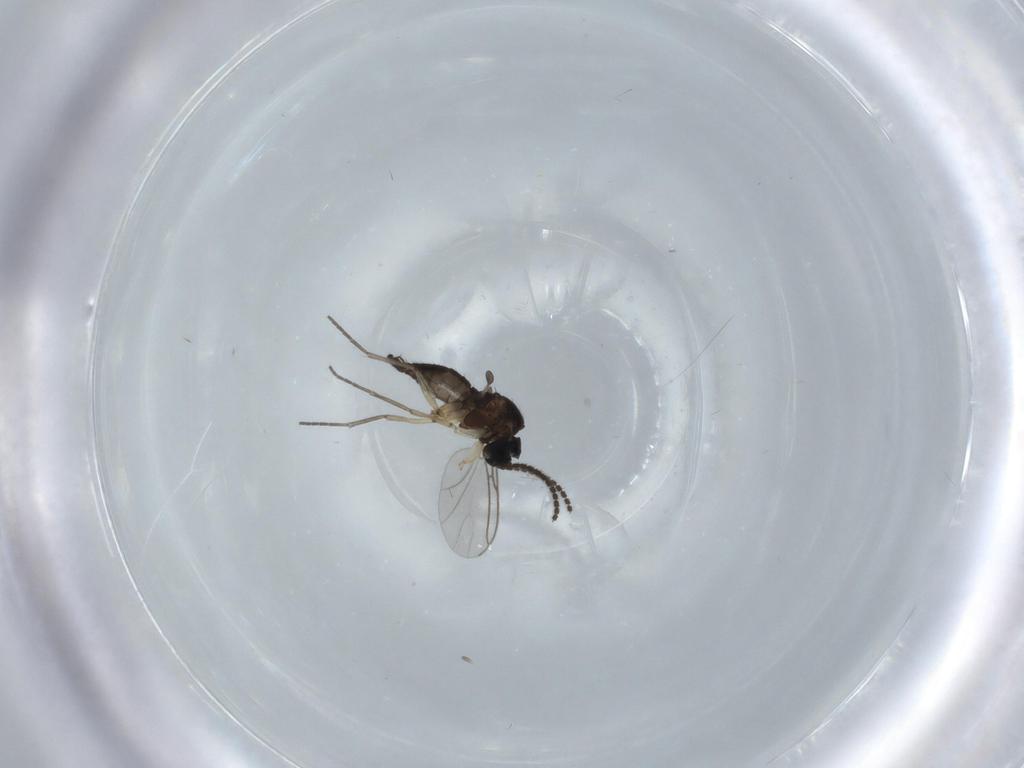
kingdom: Animalia
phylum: Arthropoda
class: Insecta
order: Diptera
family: Sciaridae
